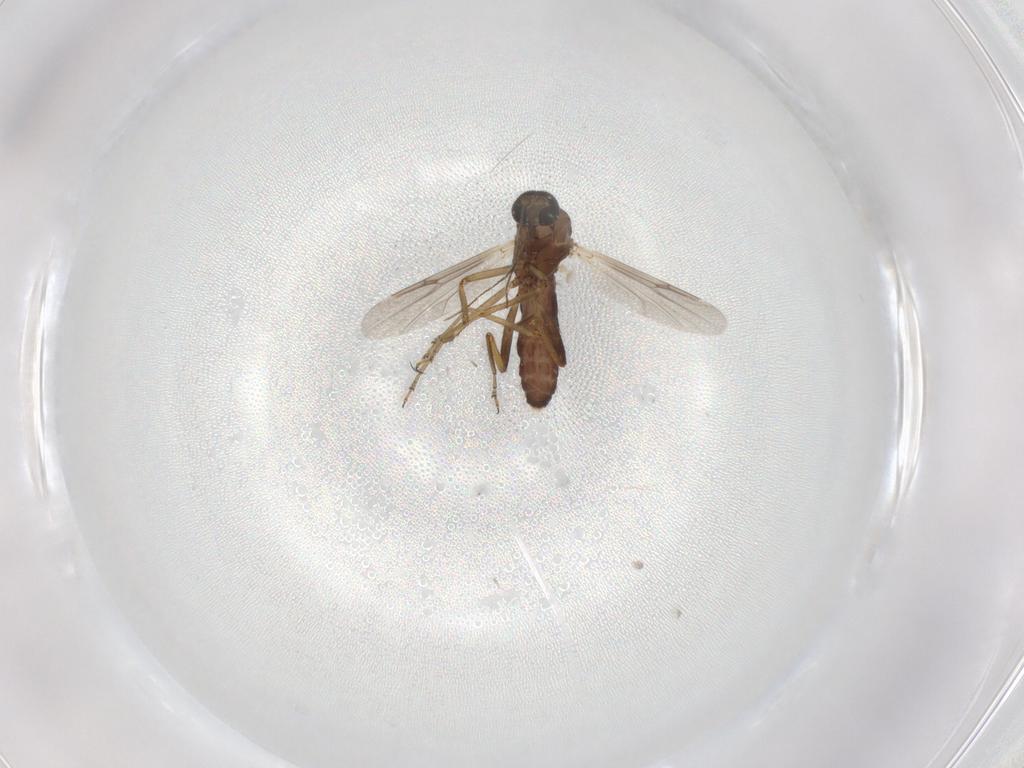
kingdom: Animalia
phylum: Arthropoda
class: Insecta
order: Diptera
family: Ceratopogonidae
